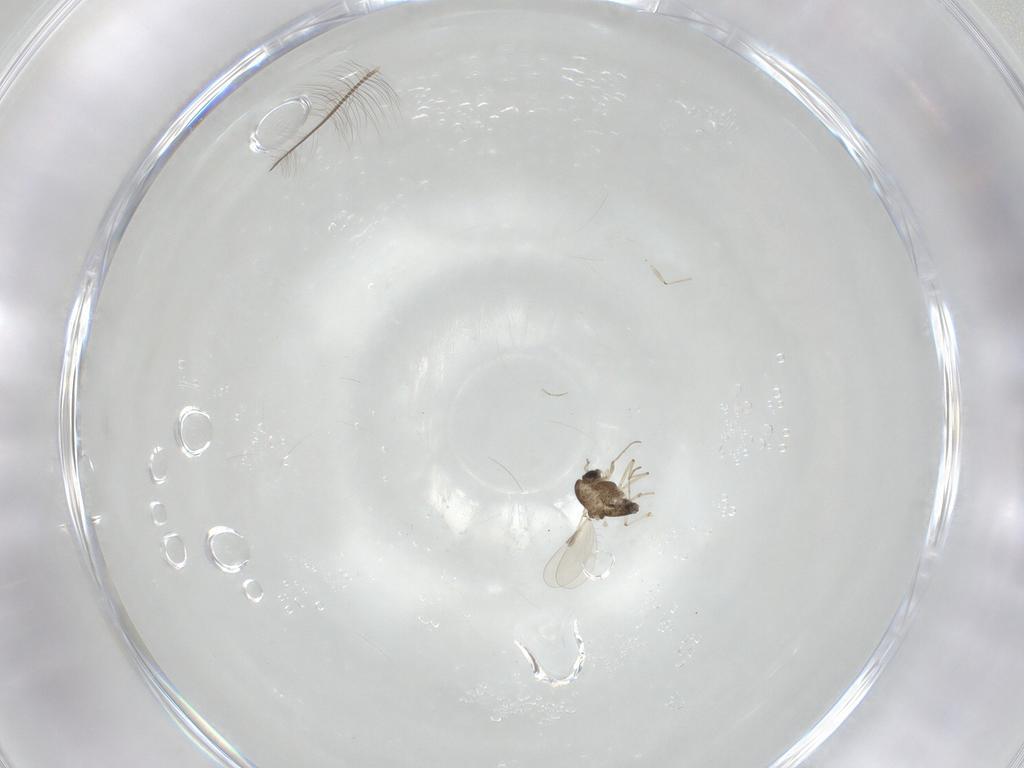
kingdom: Animalia
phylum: Arthropoda
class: Insecta
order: Diptera
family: Chironomidae
